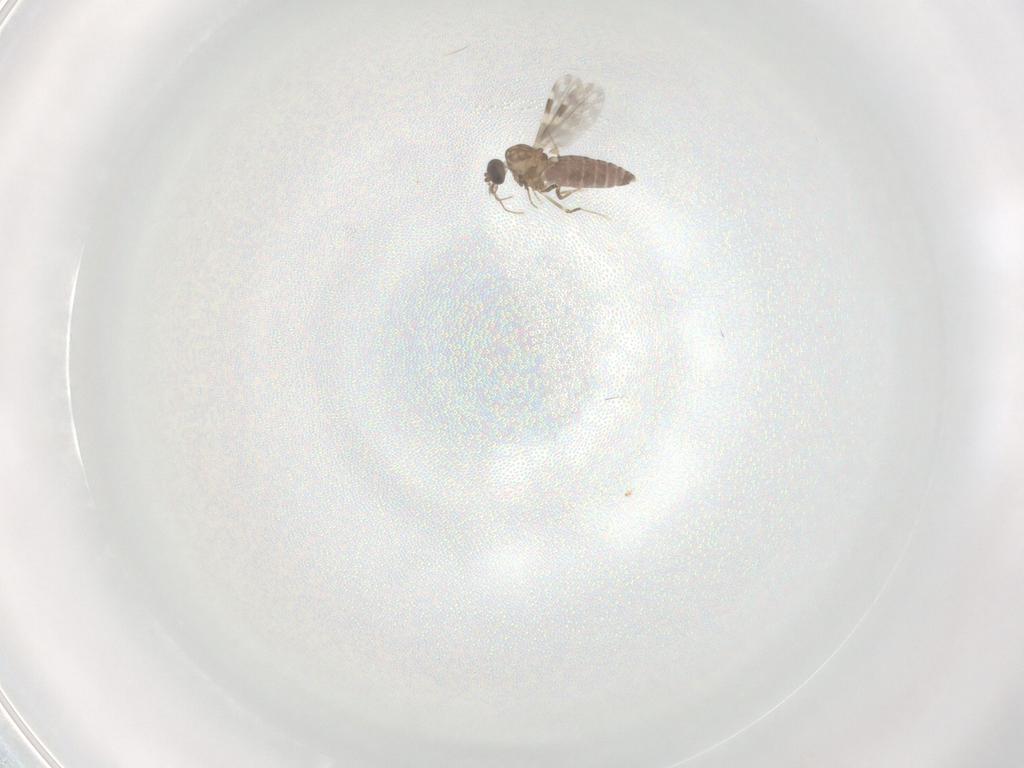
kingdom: Animalia
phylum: Arthropoda
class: Insecta
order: Diptera
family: Ceratopogonidae
